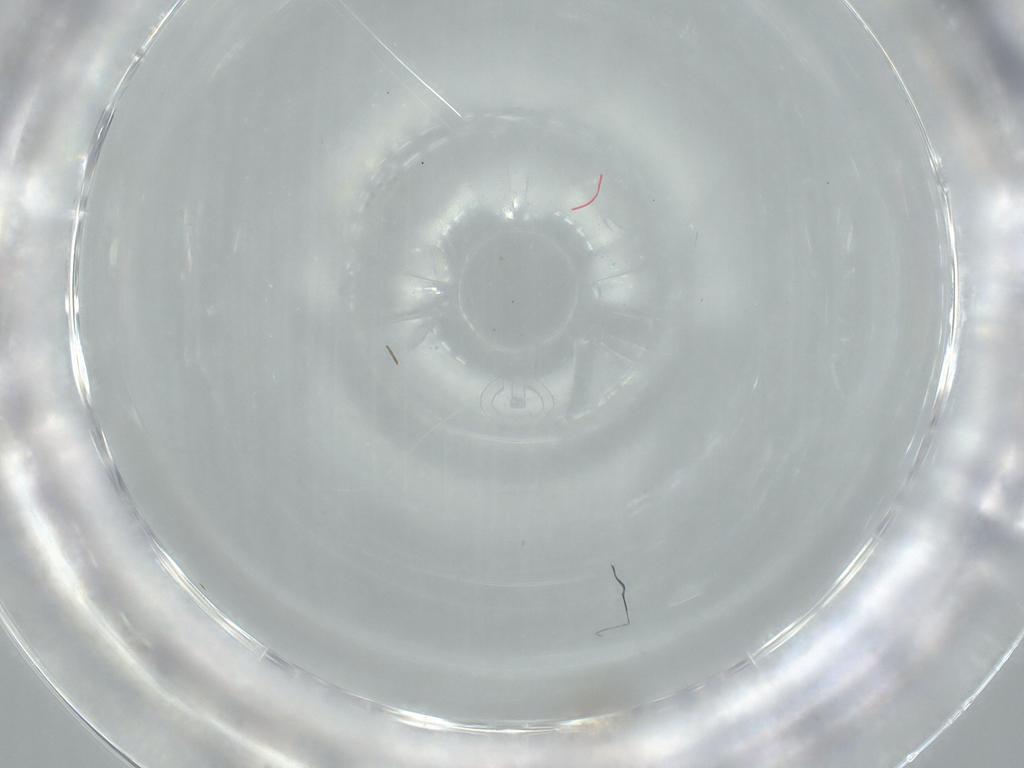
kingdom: Animalia
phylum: Arthropoda
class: Insecta
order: Diptera
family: Cecidomyiidae
